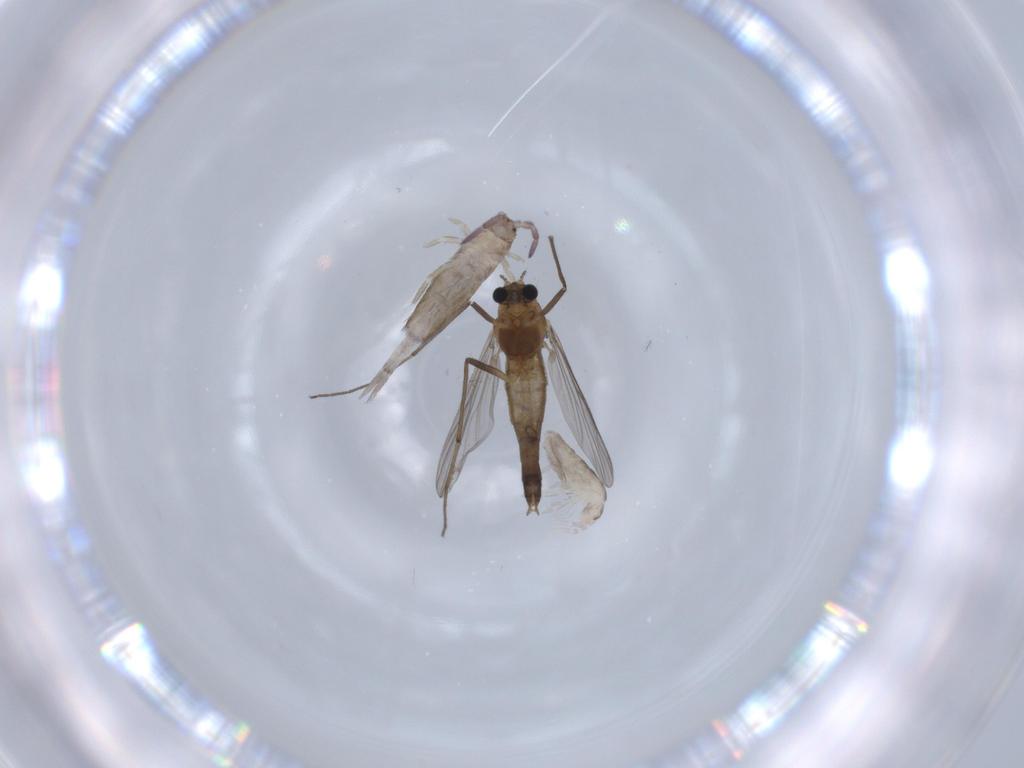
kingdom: Animalia
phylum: Arthropoda
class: Insecta
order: Diptera
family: Chironomidae
